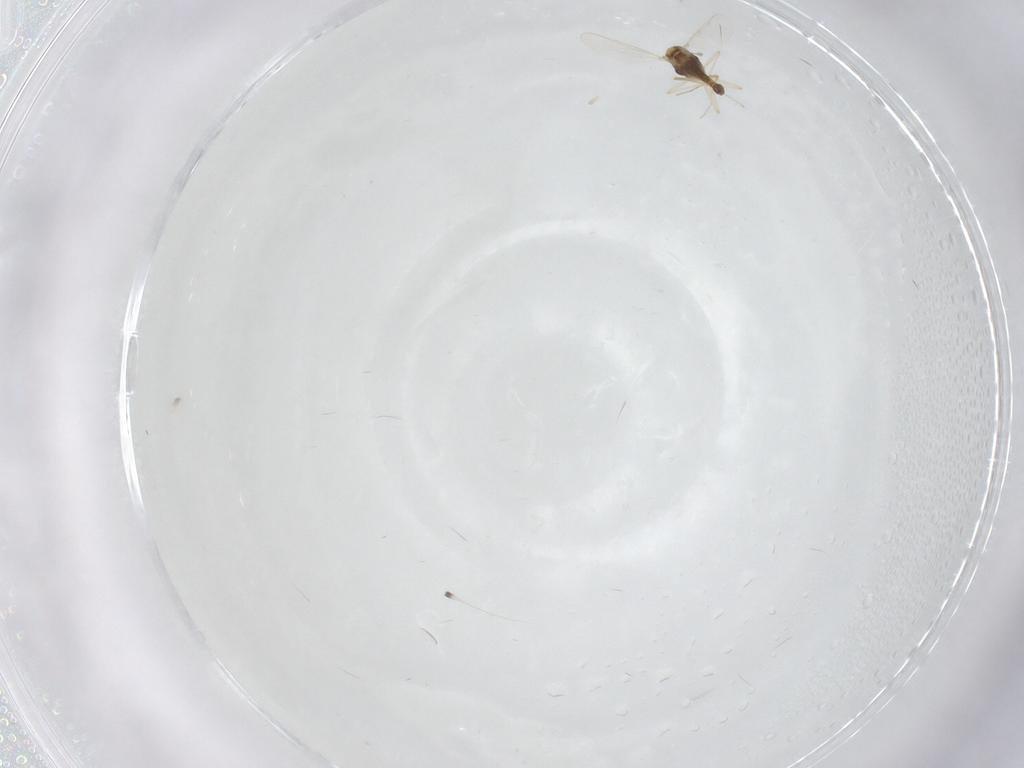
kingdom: Animalia
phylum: Arthropoda
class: Insecta
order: Diptera
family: Chironomidae
